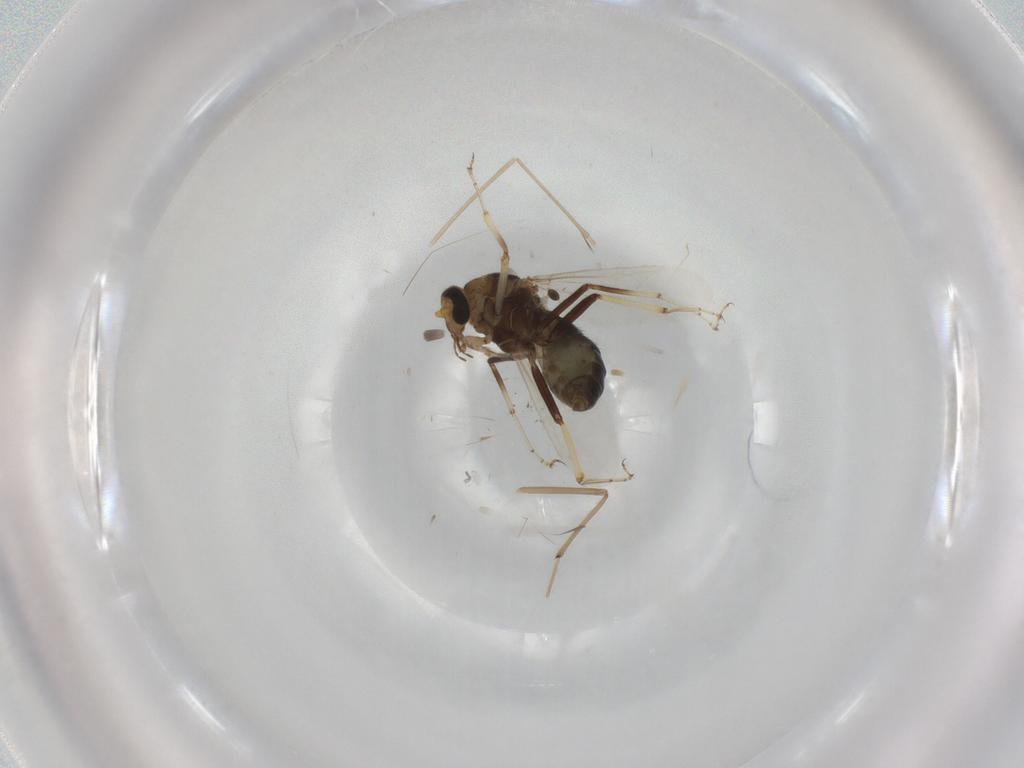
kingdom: Animalia
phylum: Arthropoda
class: Insecta
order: Diptera
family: Ceratopogonidae
